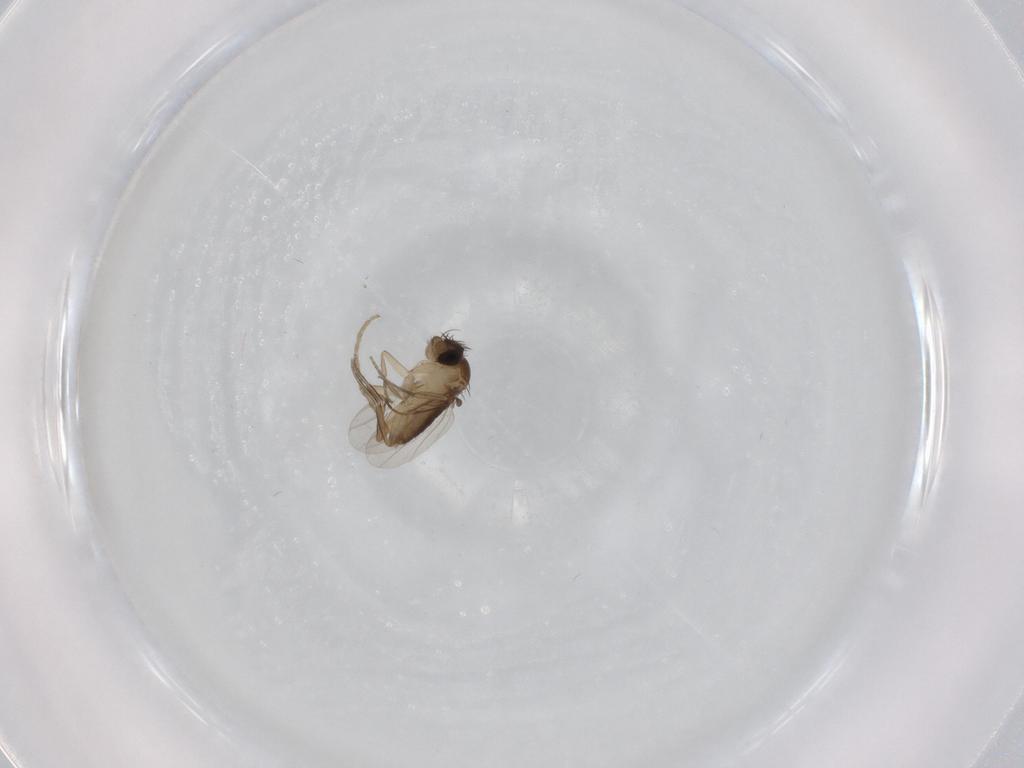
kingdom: Animalia
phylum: Arthropoda
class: Insecta
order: Diptera
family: Phoridae
